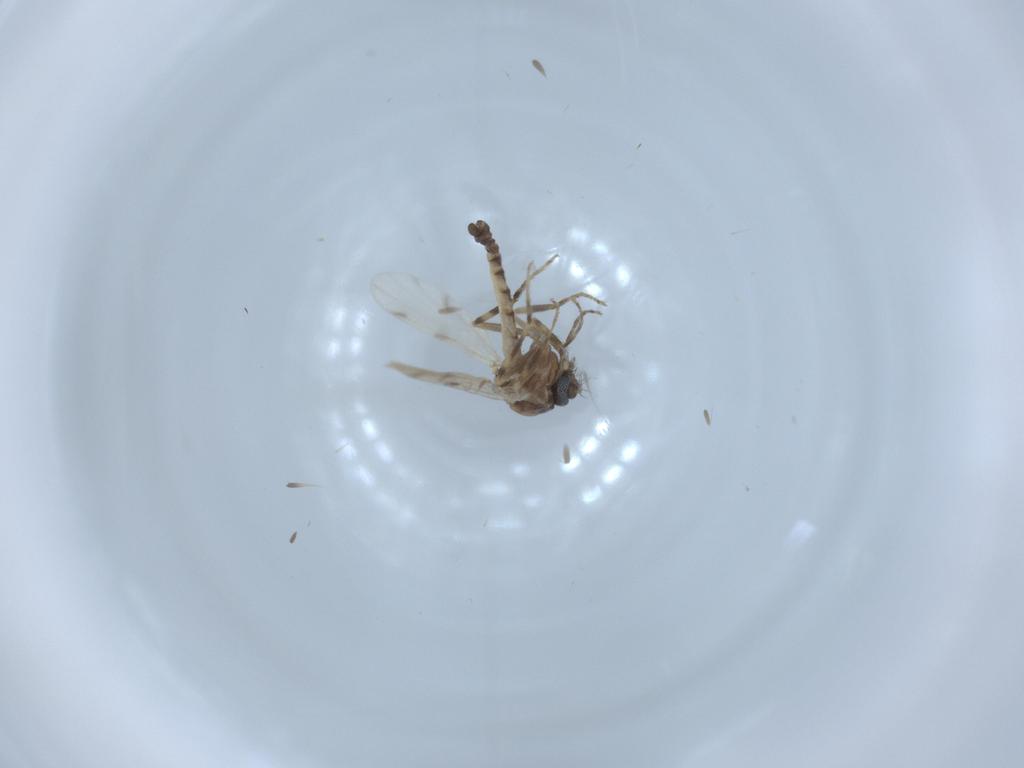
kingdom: Animalia
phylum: Arthropoda
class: Insecta
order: Diptera
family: Ceratopogonidae
